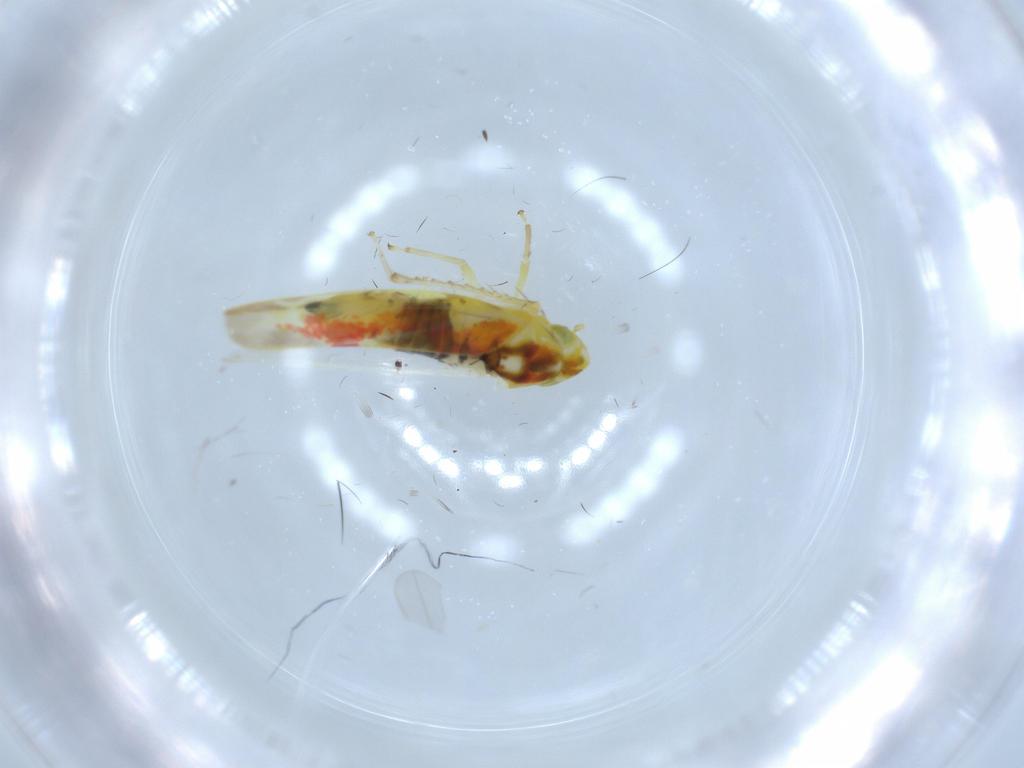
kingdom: Animalia
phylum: Arthropoda
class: Insecta
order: Hemiptera
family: Cicadellidae
